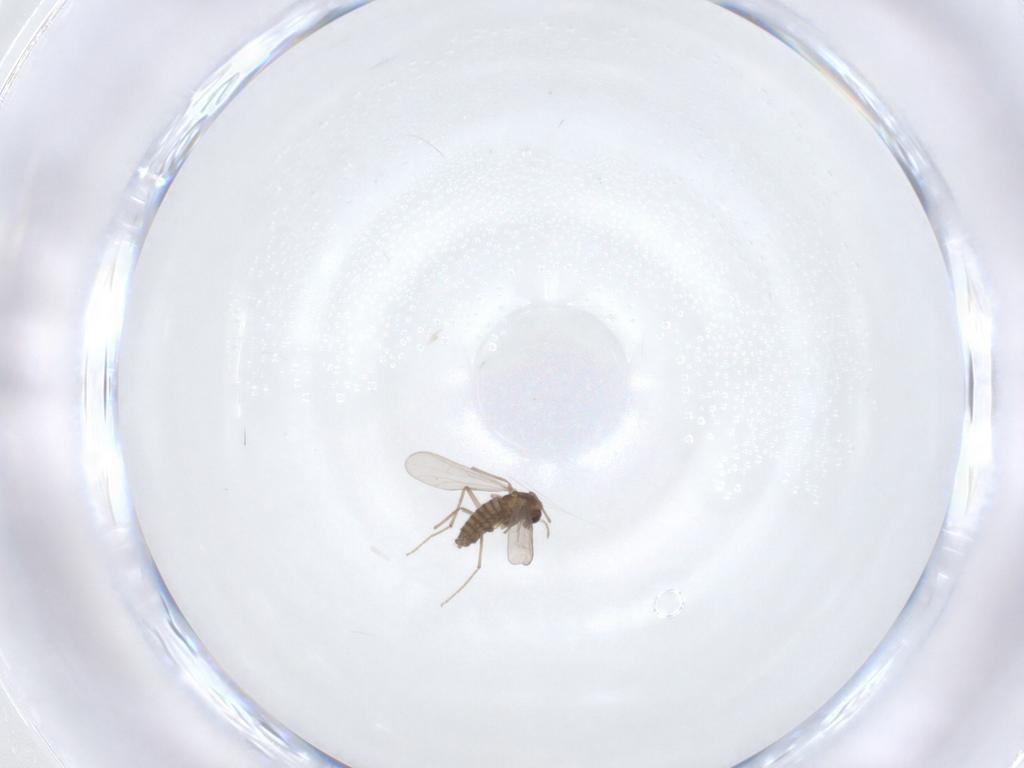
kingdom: Animalia
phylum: Arthropoda
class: Insecta
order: Diptera
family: Chironomidae
